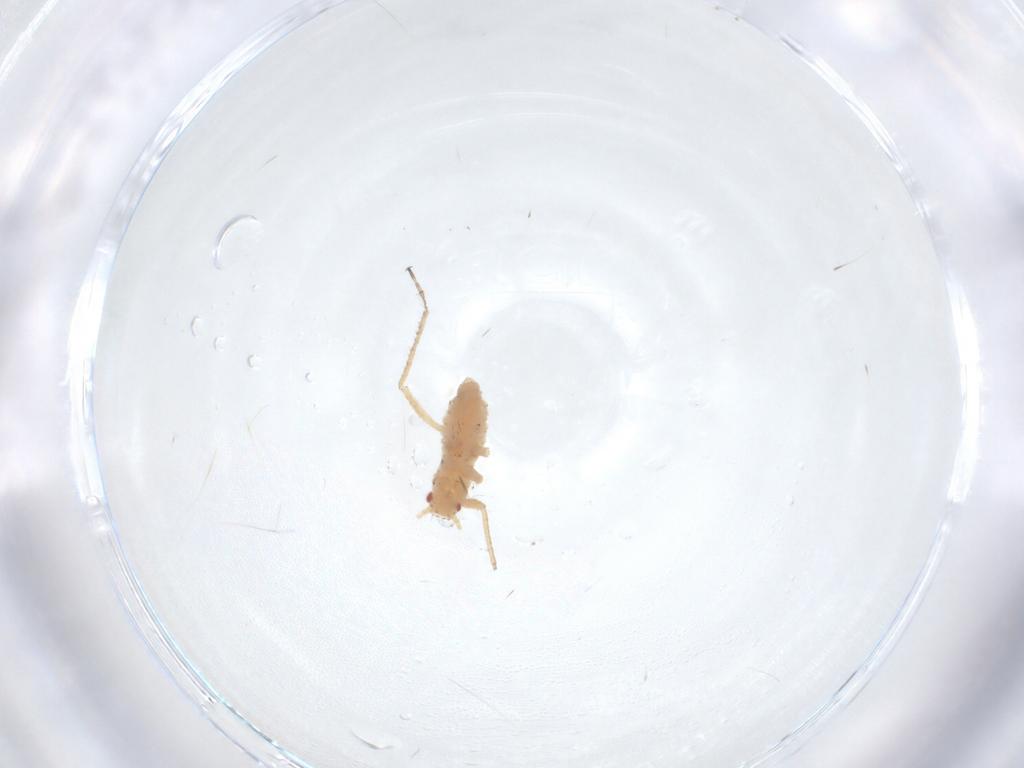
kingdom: Animalia
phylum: Arthropoda
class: Insecta
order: Hemiptera
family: Aphididae
